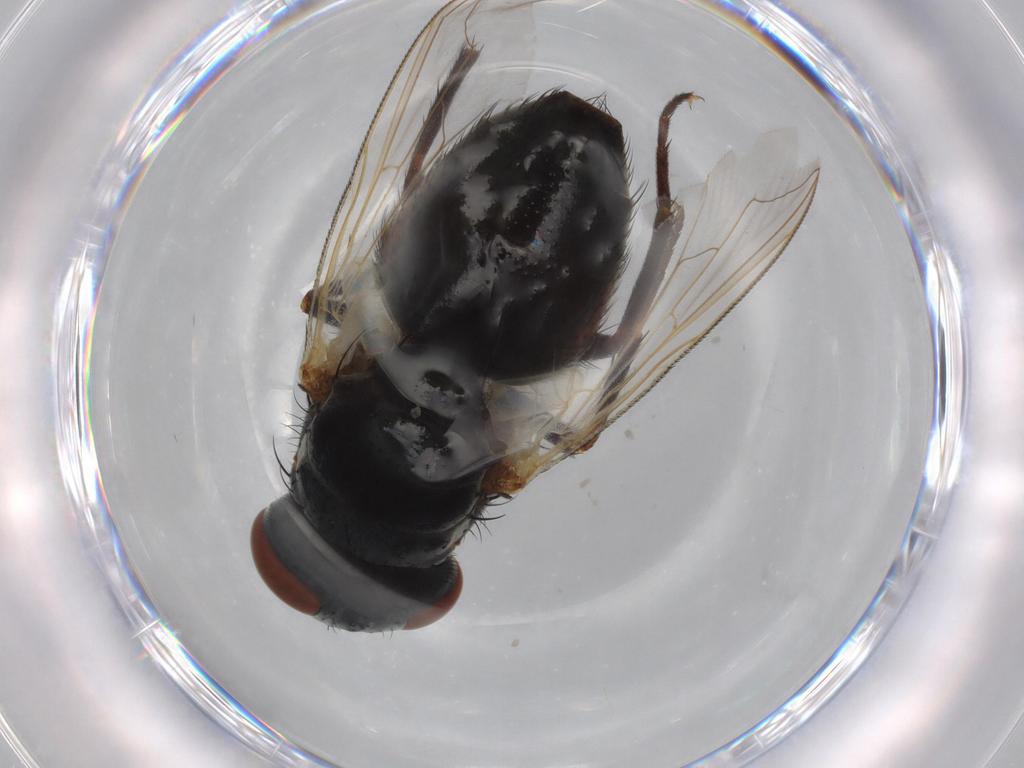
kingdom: Animalia
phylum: Arthropoda
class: Insecta
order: Diptera
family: Sarcophagidae
